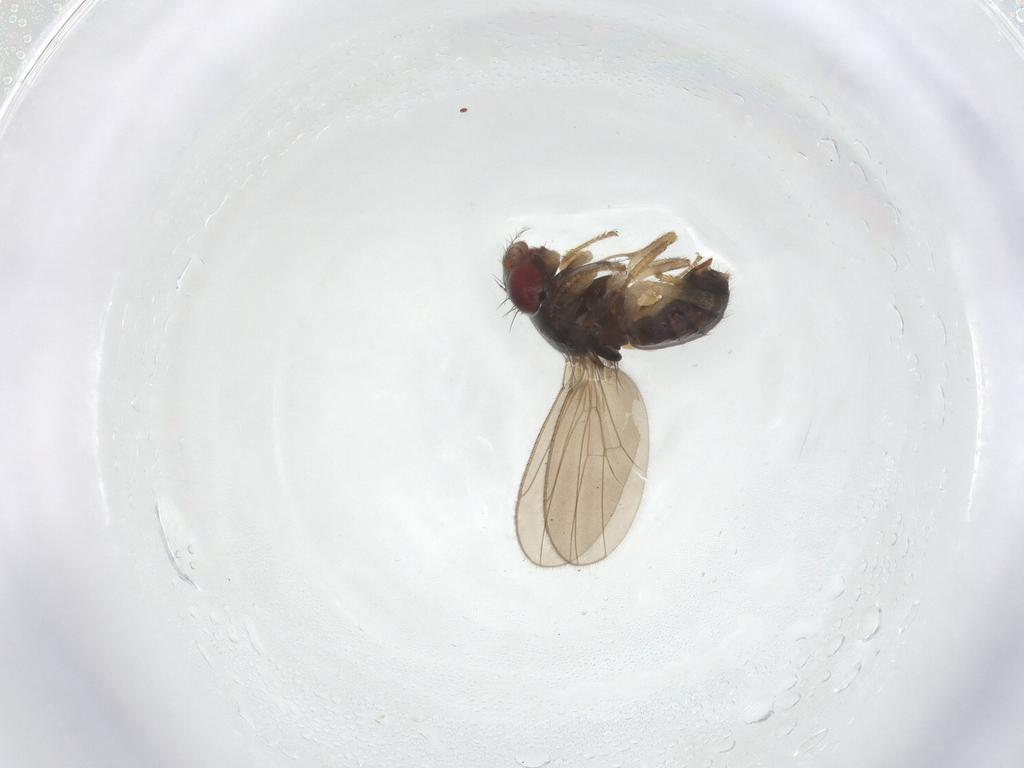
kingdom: Animalia
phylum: Arthropoda
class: Insecta
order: Diptera
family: Drosophilidae
